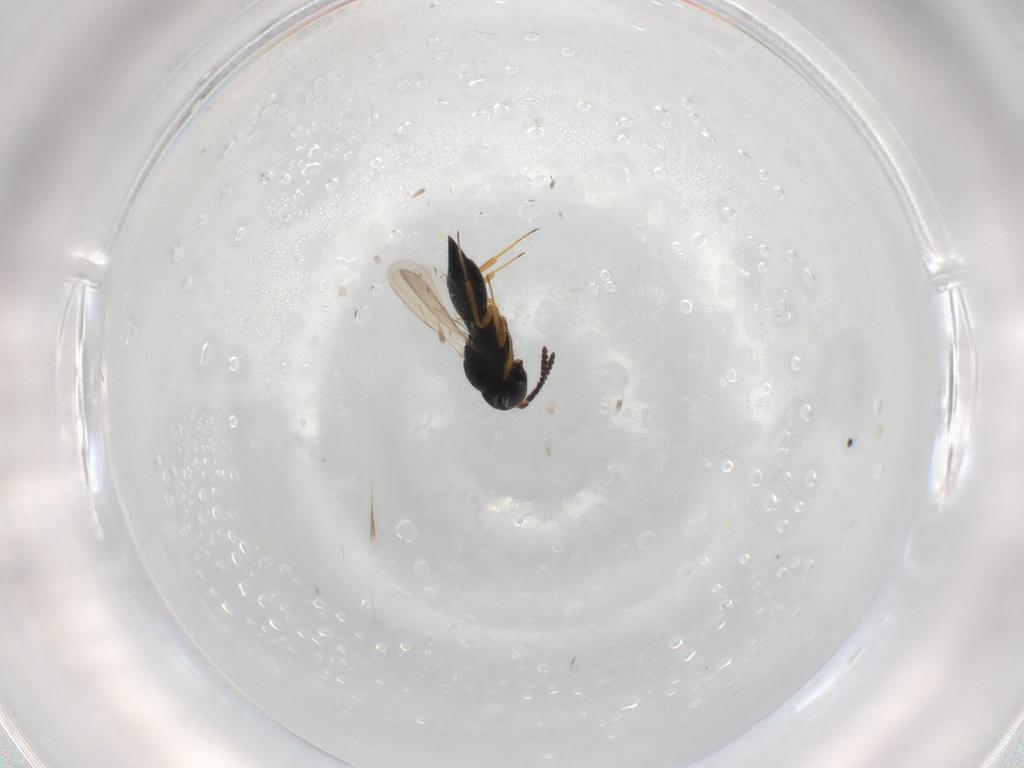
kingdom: Animalia
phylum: Arthropoda
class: Insecta
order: Hymenoptera
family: Scelionidae
